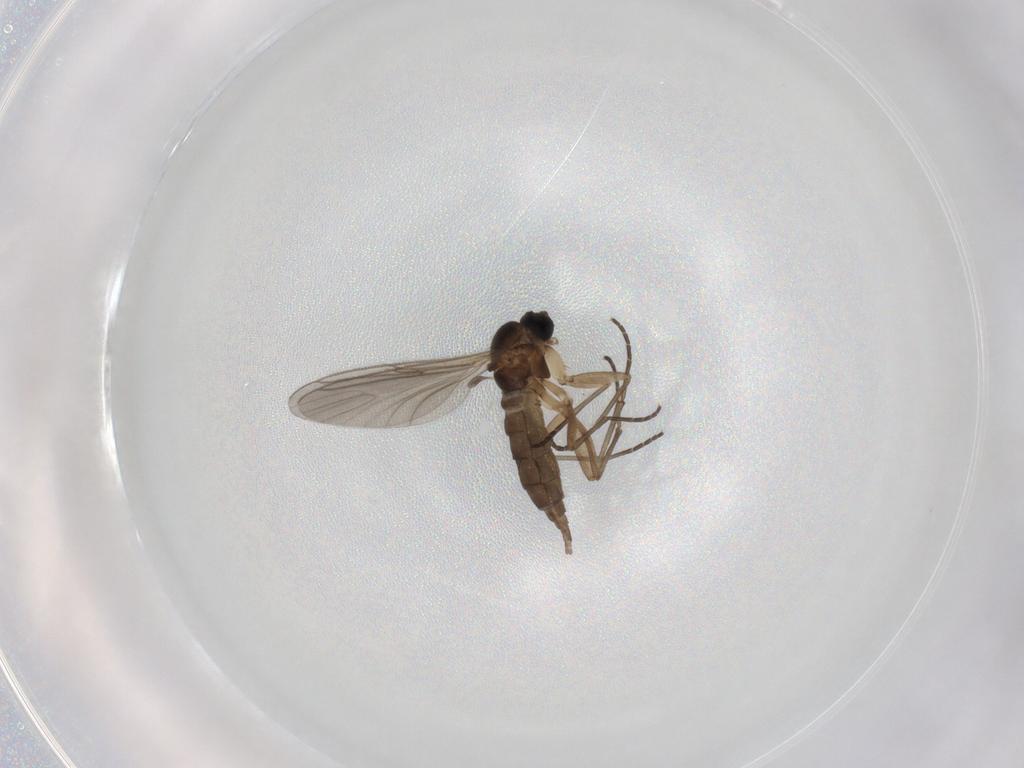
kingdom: Animalia
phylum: Arthropoda
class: Insecta
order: Diptera
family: Sciaridae
